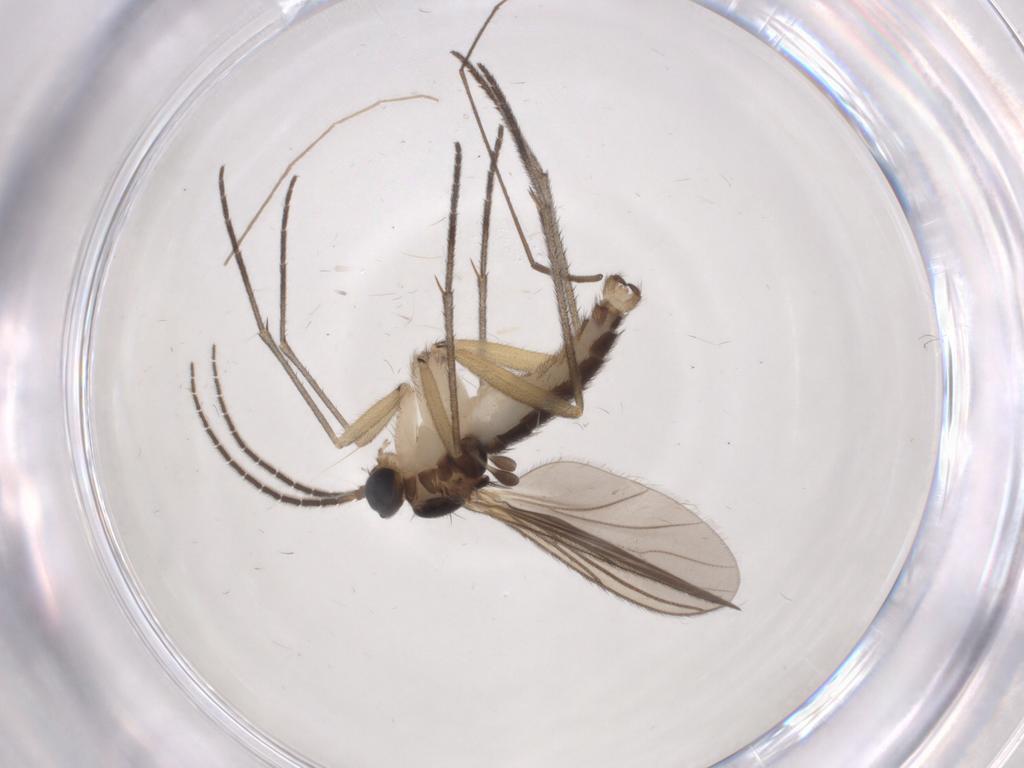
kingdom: Animalia
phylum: Arthropoda
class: Insecta
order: Diptera
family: Sciaridae
